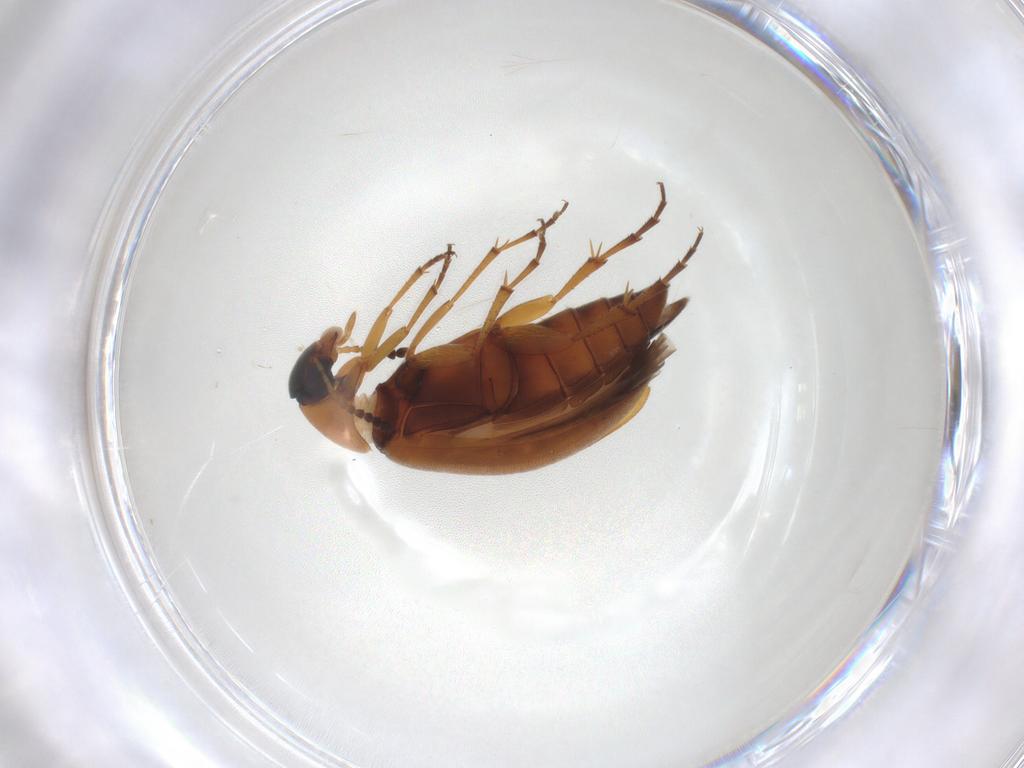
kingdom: Animalia
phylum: Arthropoda
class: Insecta
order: Coleoptera
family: Scraptiidae
